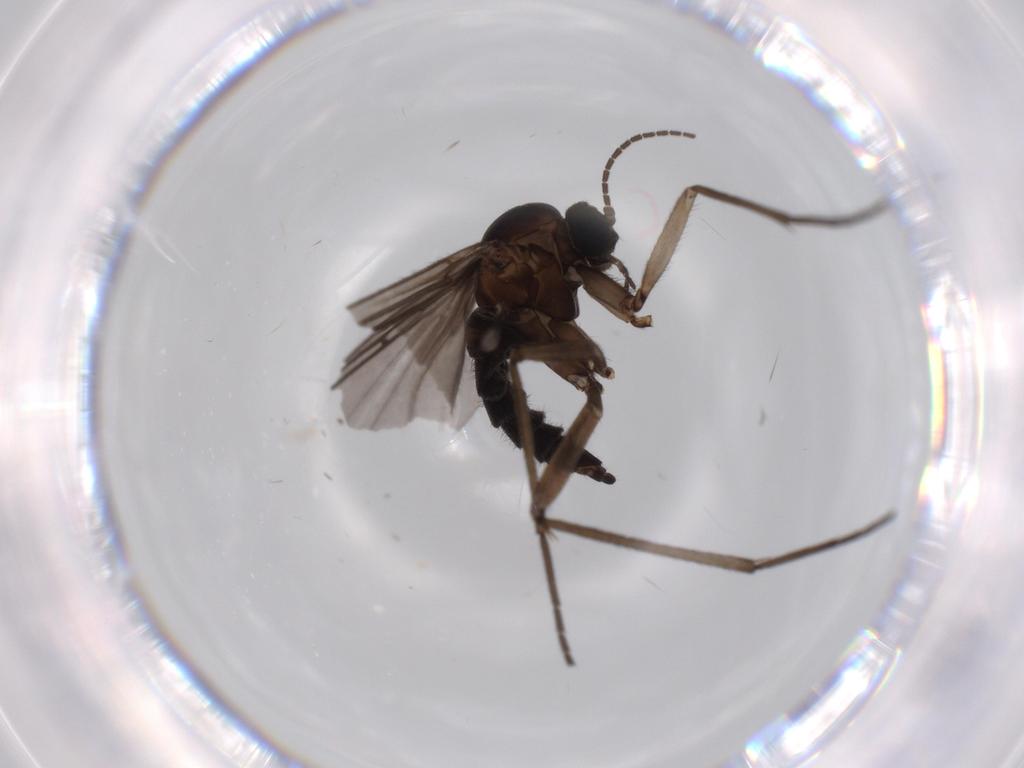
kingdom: Animalia
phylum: Arthropoda
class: Insecta
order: Diptera
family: Sciaridae
